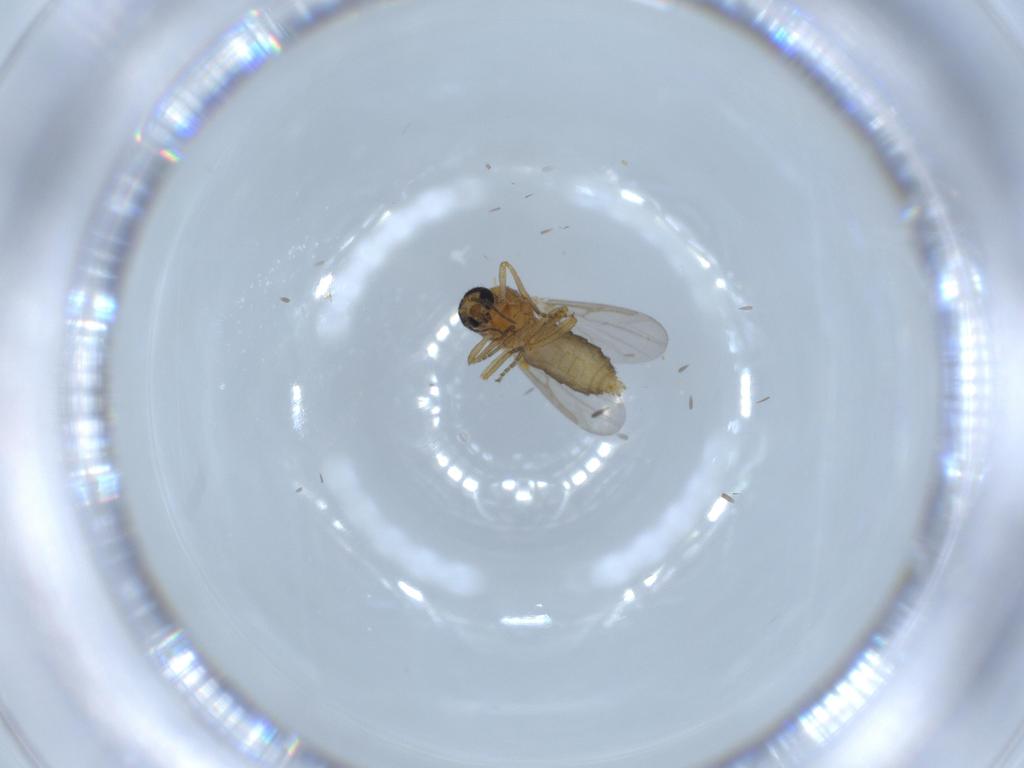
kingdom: Animalia
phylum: Arthropoda
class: Insecta
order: Diptera
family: Ceratopogonidae
